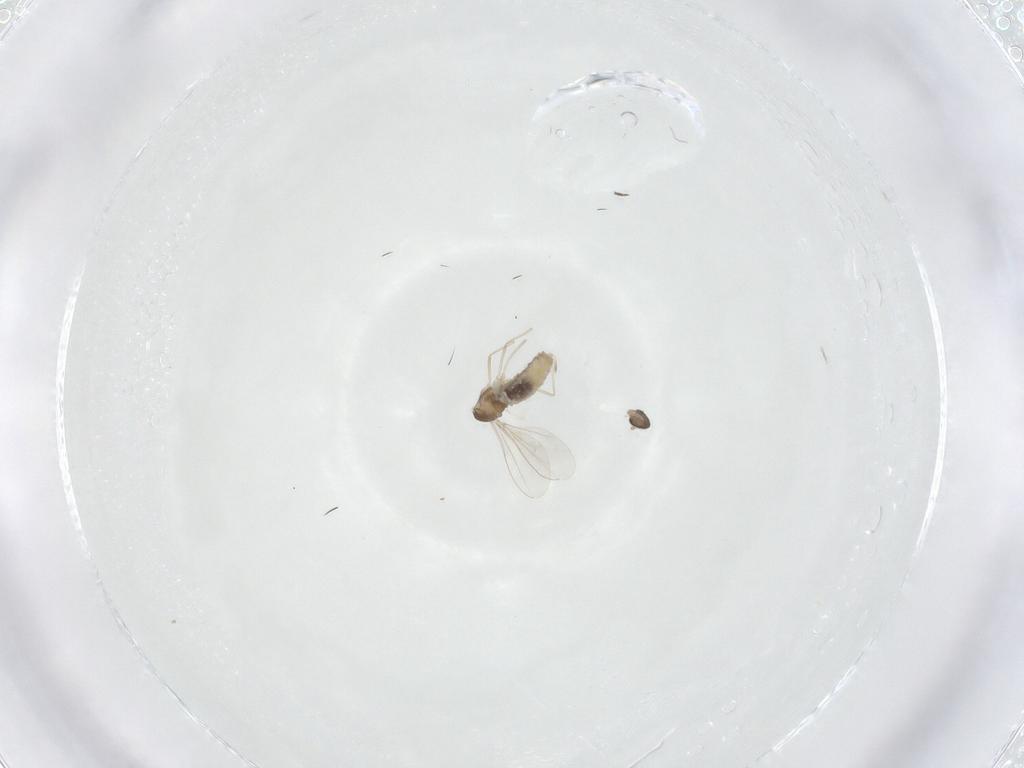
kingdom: Animalia
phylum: Arthropoda
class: Insecta
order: Diptera
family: Cecidomyiidae
